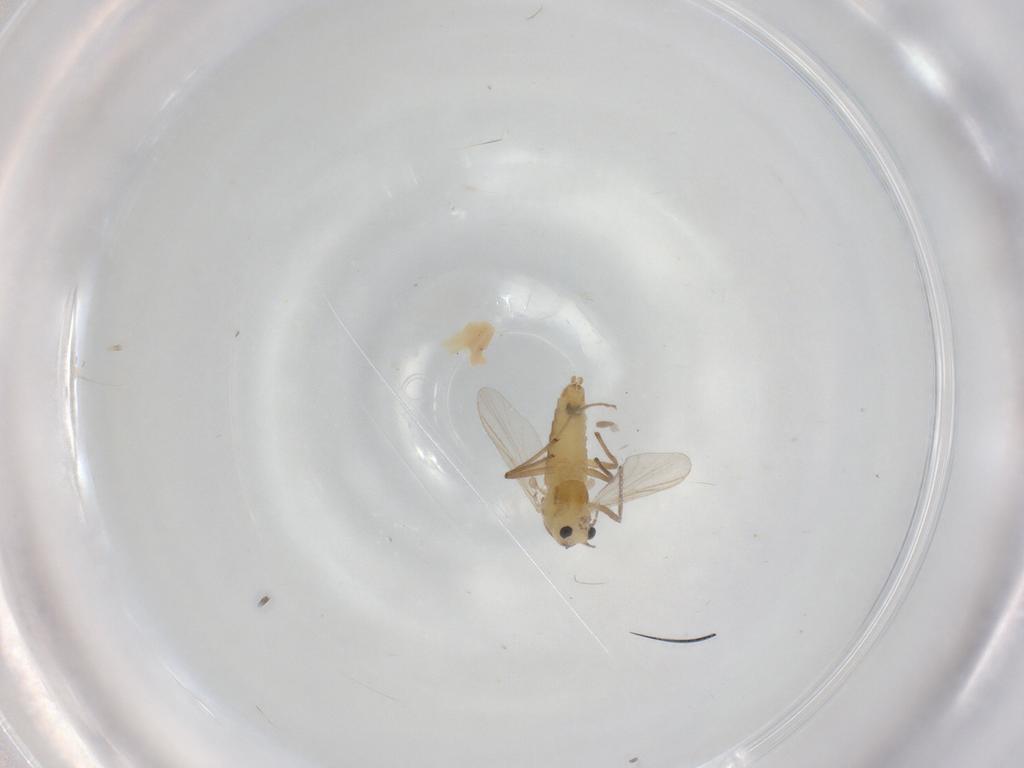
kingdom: Animalia
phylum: Arthropoda
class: Insecta
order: Diptera
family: Chironomidae
